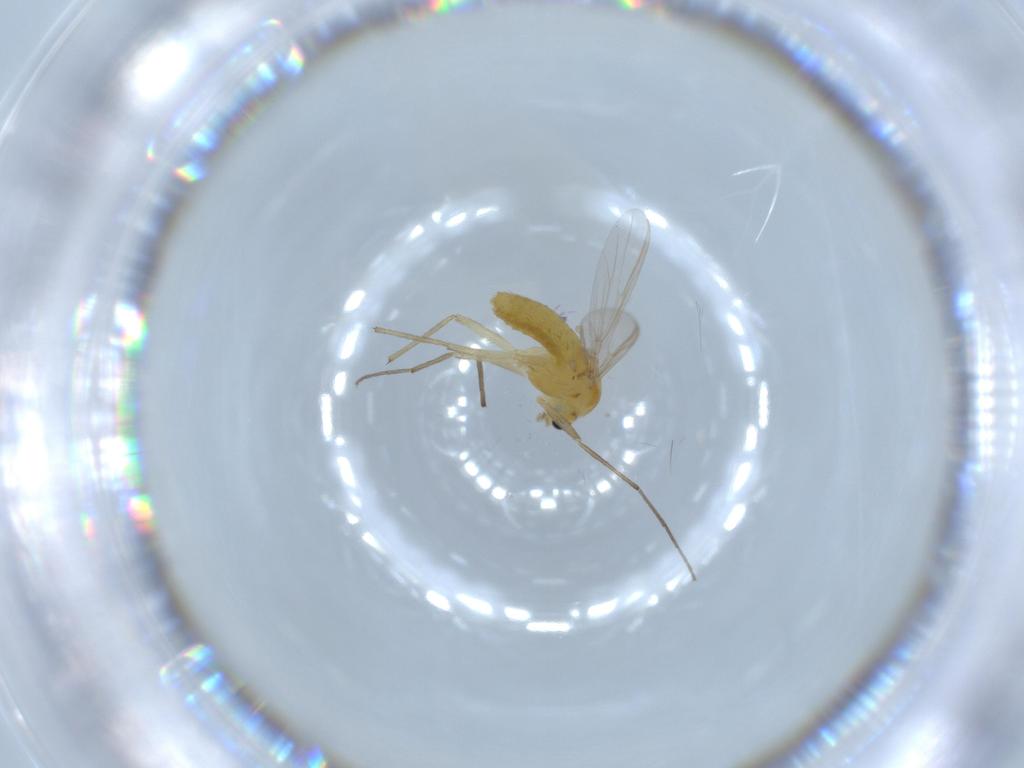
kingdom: Animalia
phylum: Arthropoda
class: Insecta
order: Diptera
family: Chironomidae
